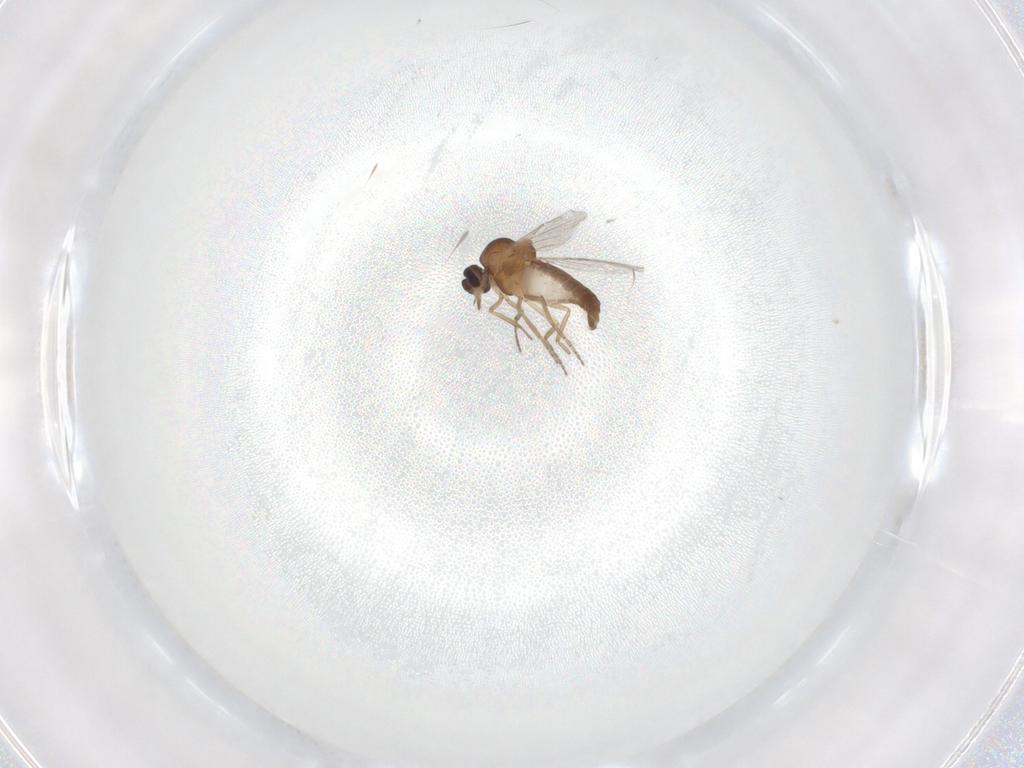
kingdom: Animalia
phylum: Arthropoda
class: Insecta
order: Diptera
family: Ceratopogonidae
